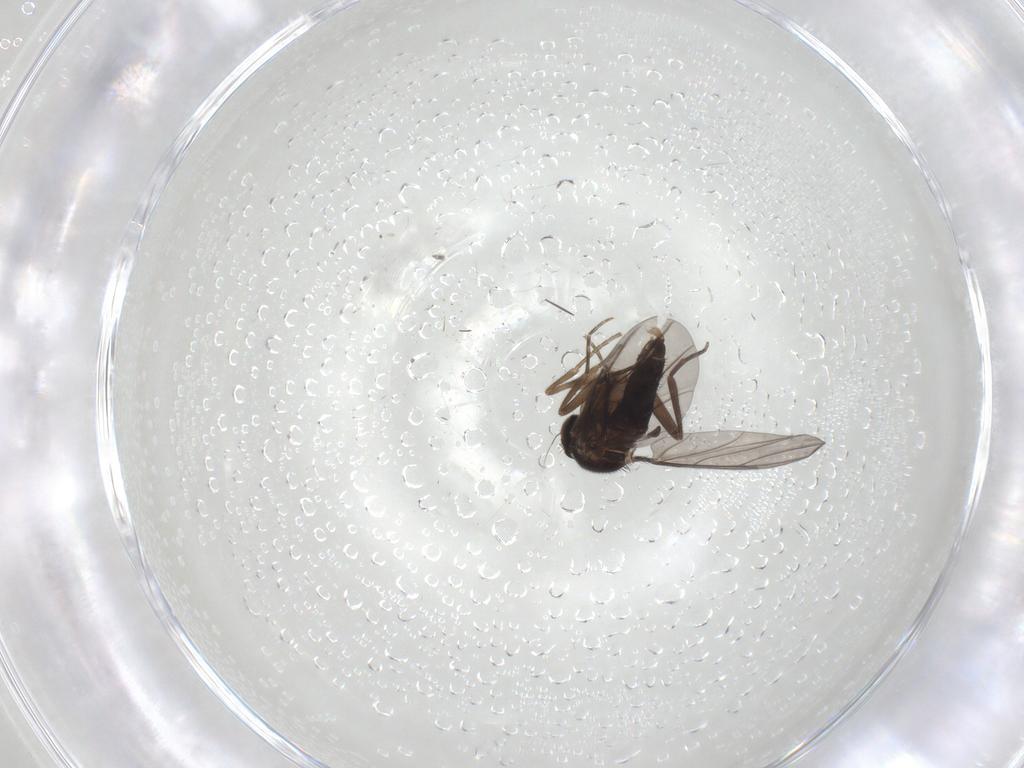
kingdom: Animalia
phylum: Arthropoda
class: Insecta
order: Diptera
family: Phoridae
